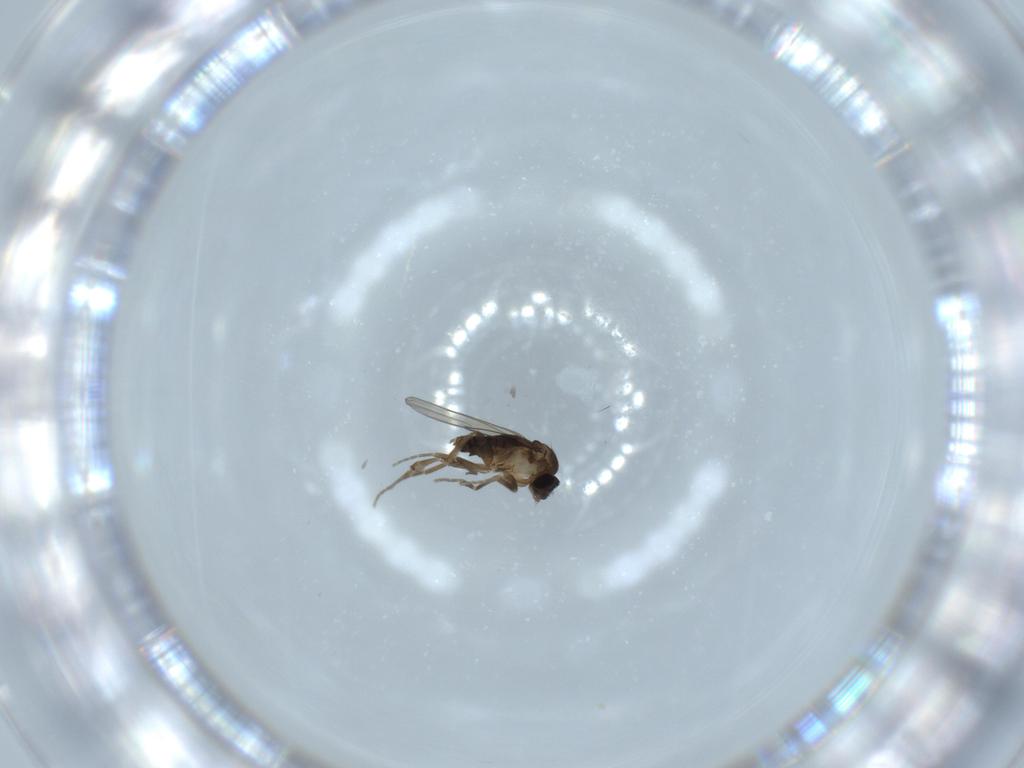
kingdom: Animalia
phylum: Arthropoda
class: Insecta
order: Diptera
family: Phoridae
